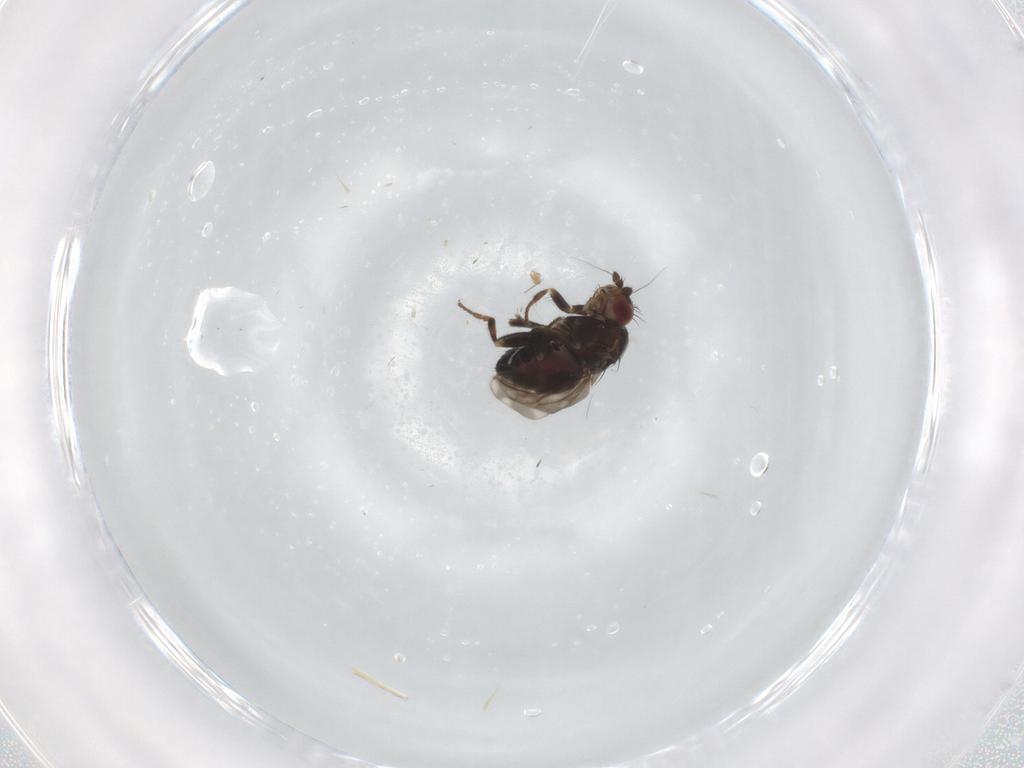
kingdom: Animalia
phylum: Arthropoda
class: Insecta
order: Diptera
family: Sphaeroceridae
